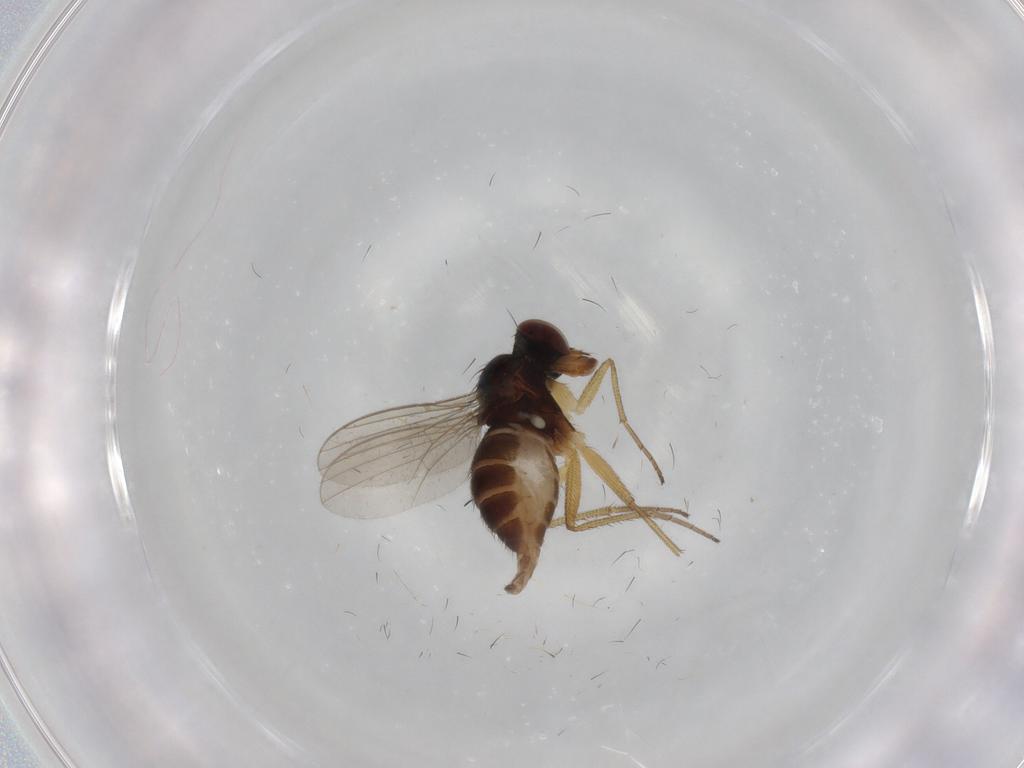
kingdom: Animalia
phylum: Arthropoda
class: Insecta
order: Diptera
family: Dolichopodidae
